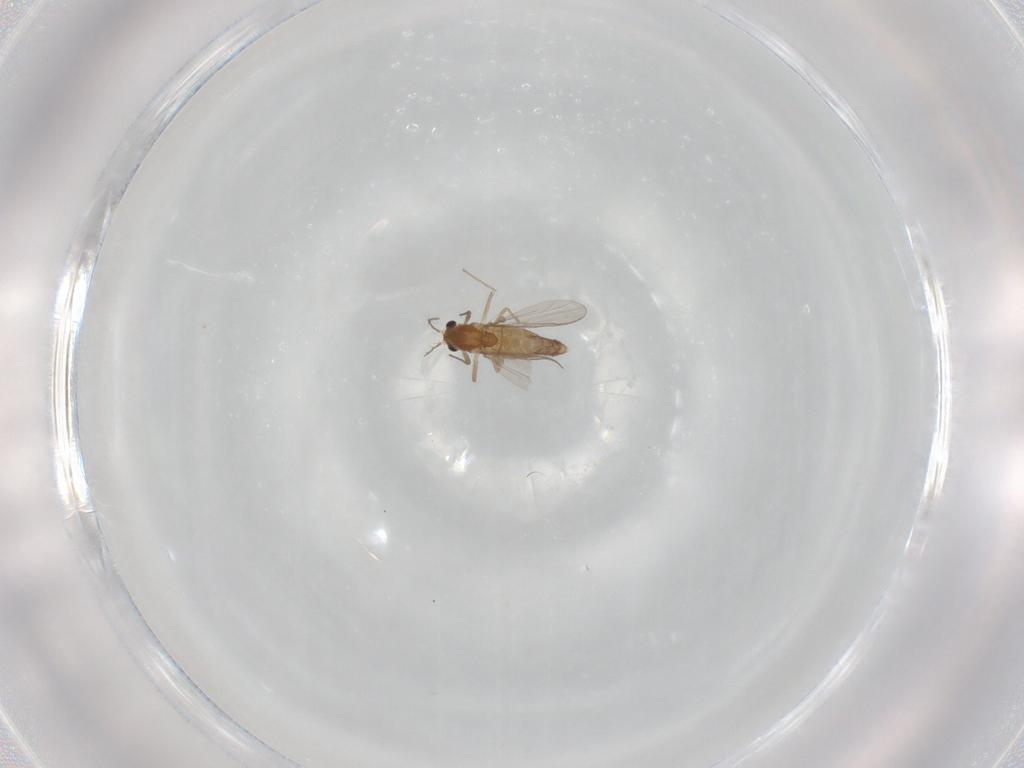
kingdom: Animalia
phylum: Arthropoda
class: Insecta
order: Diptera
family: Chironomidae
